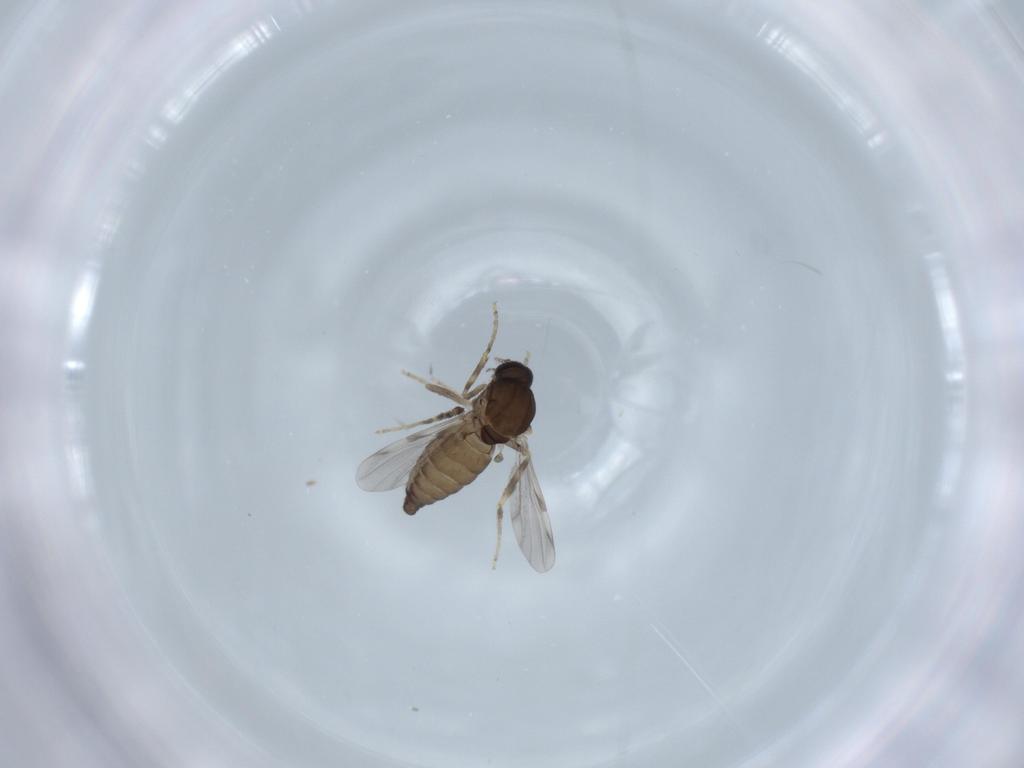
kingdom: Animalia
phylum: Arthropoda
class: Insecta
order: Diptera
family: Ceratopogonidae
